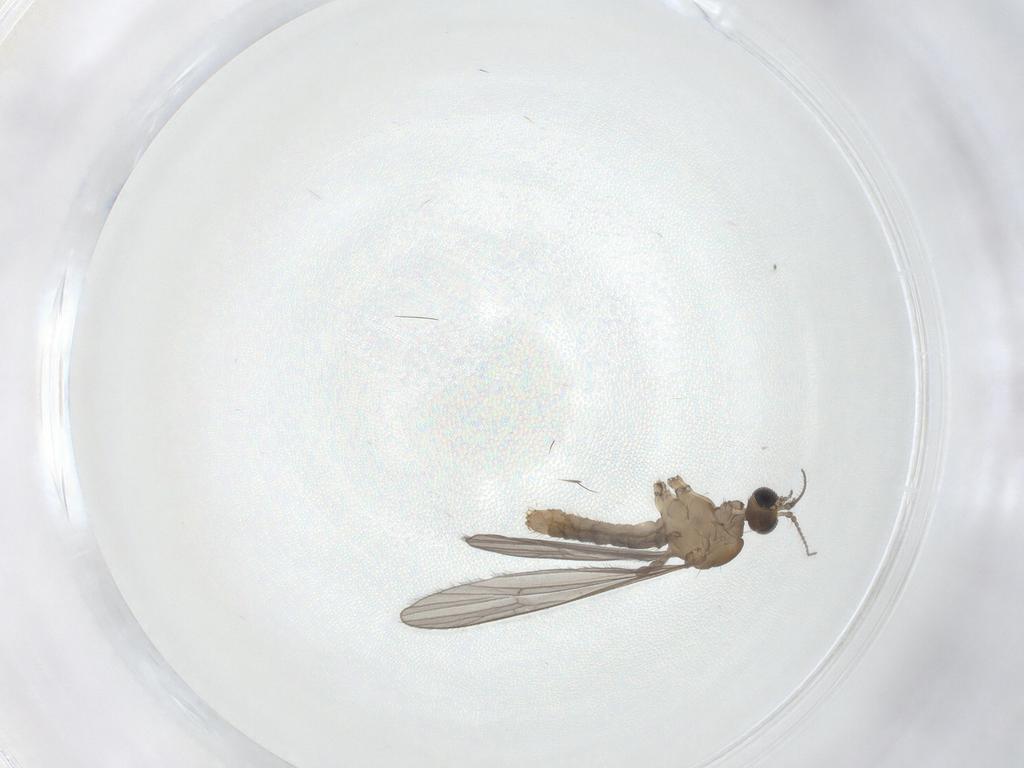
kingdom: Animalia
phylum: Arthropoda
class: Insecta
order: Diptera
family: Limoniidae
